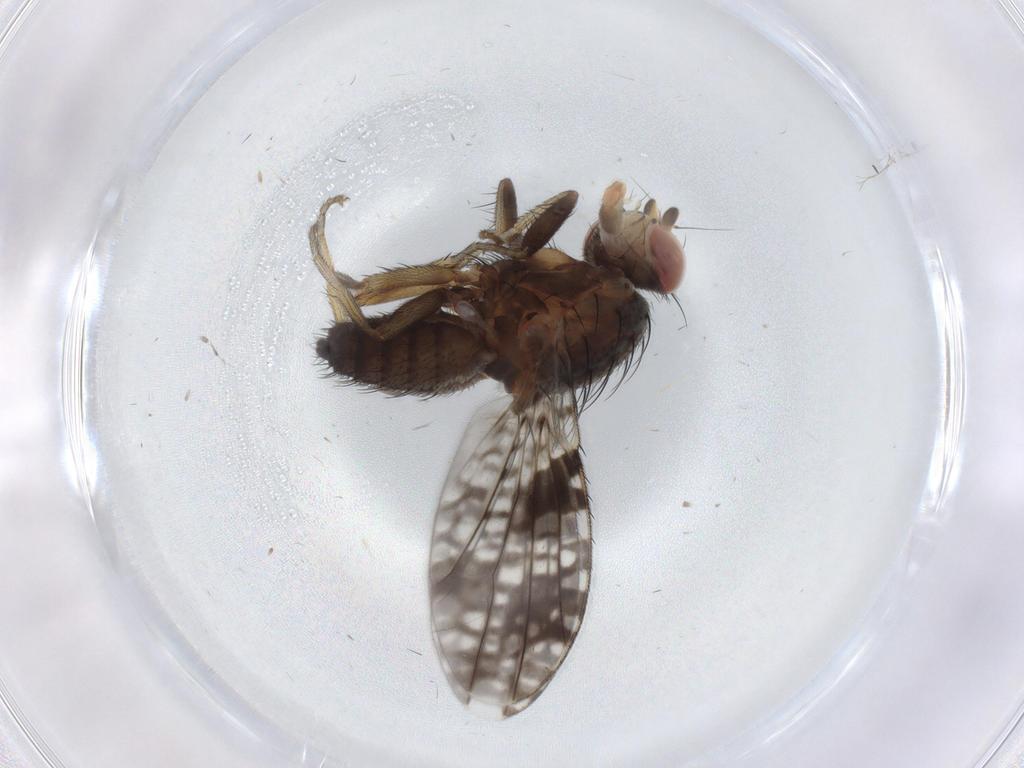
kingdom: Animalia
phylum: Arthropoda
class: Insecta
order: Diptera
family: Tephritidae
